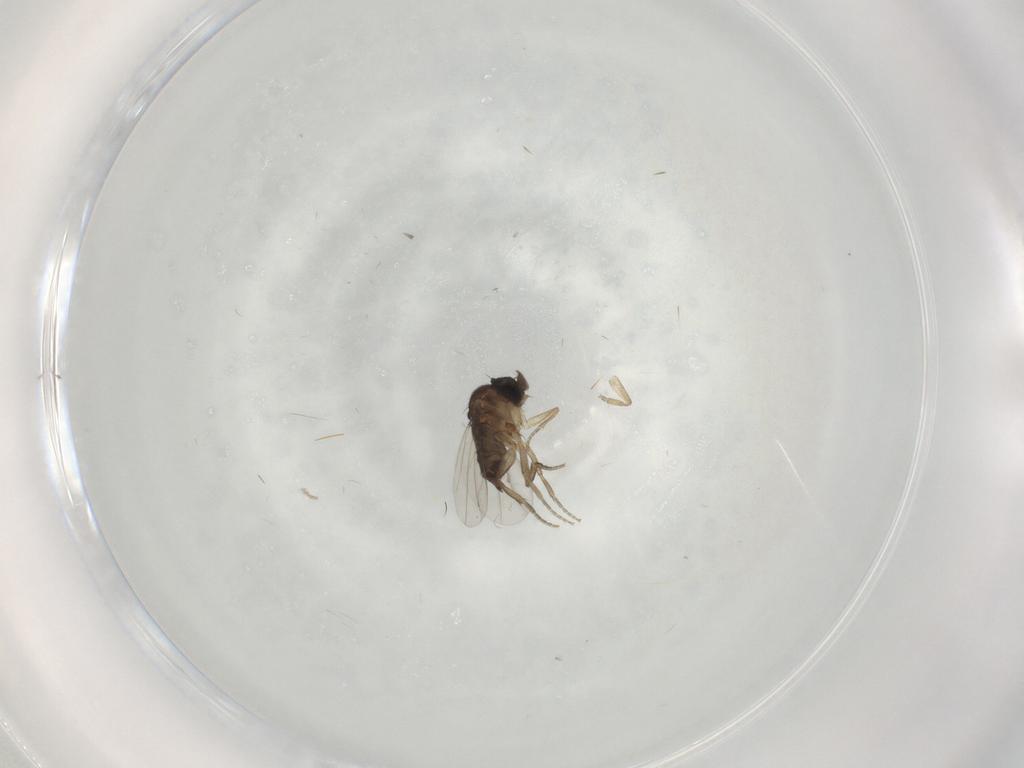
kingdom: Animalia
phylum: Arthropoda
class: Insecta
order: Diptera
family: Phoridae
